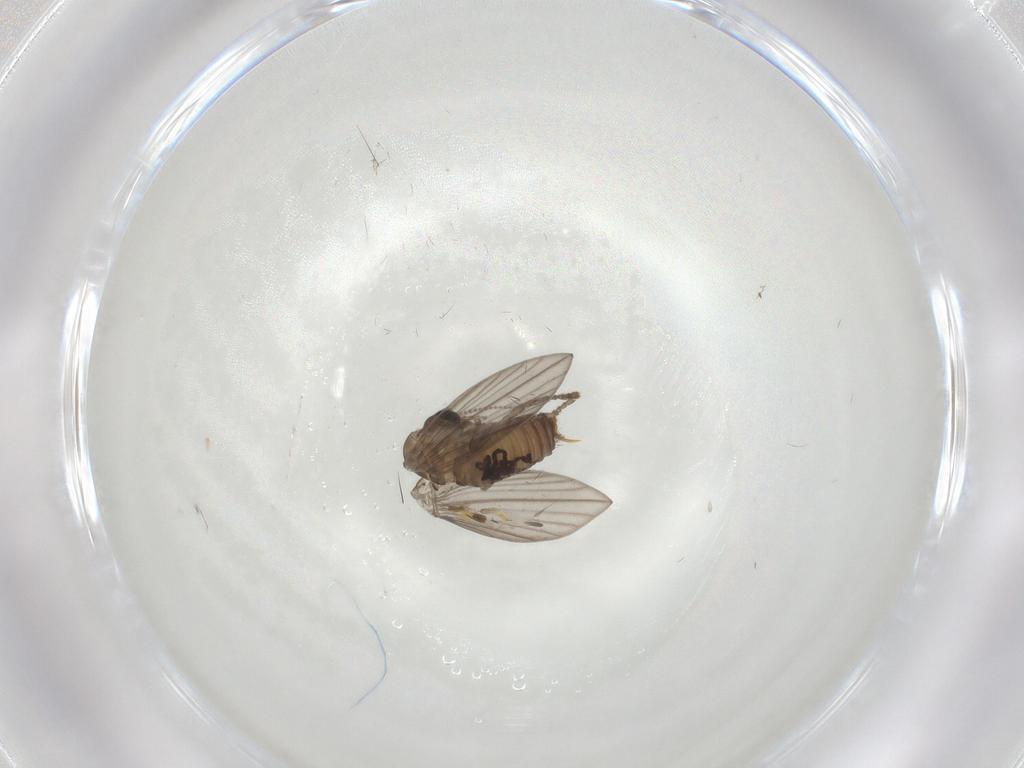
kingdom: Animalia
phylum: Arthropoda
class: Insecta
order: Diptera
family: Psychodidae
